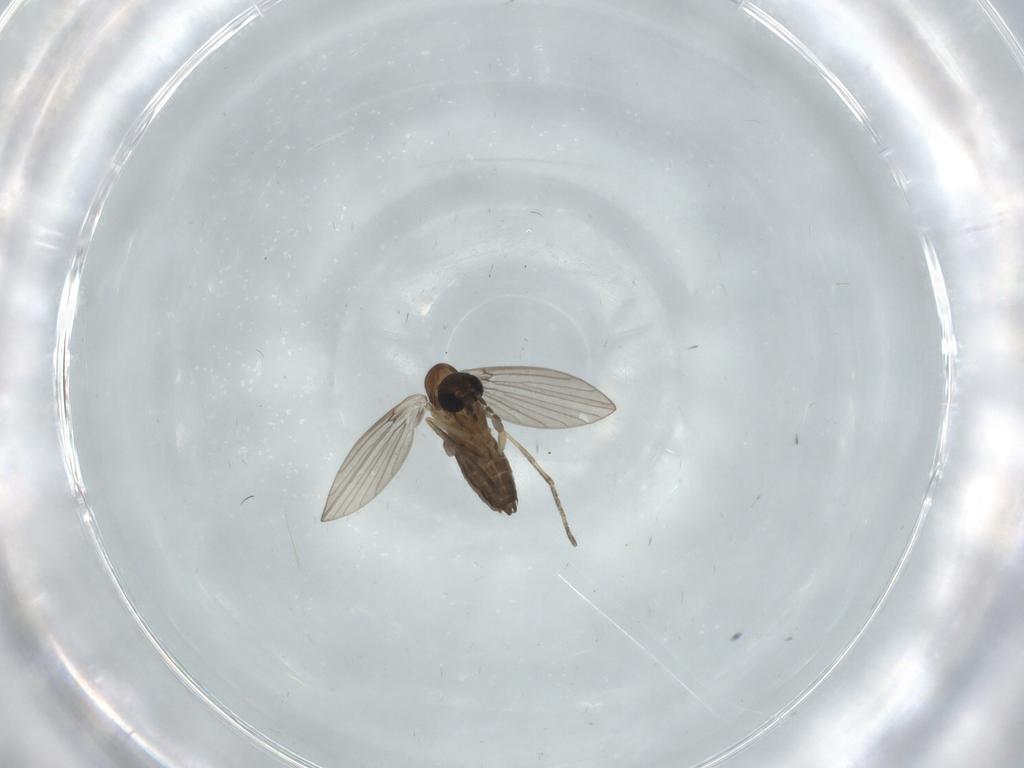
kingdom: Animalia
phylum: Arthropoda
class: Insecta
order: Diptera
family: Psychodidae
